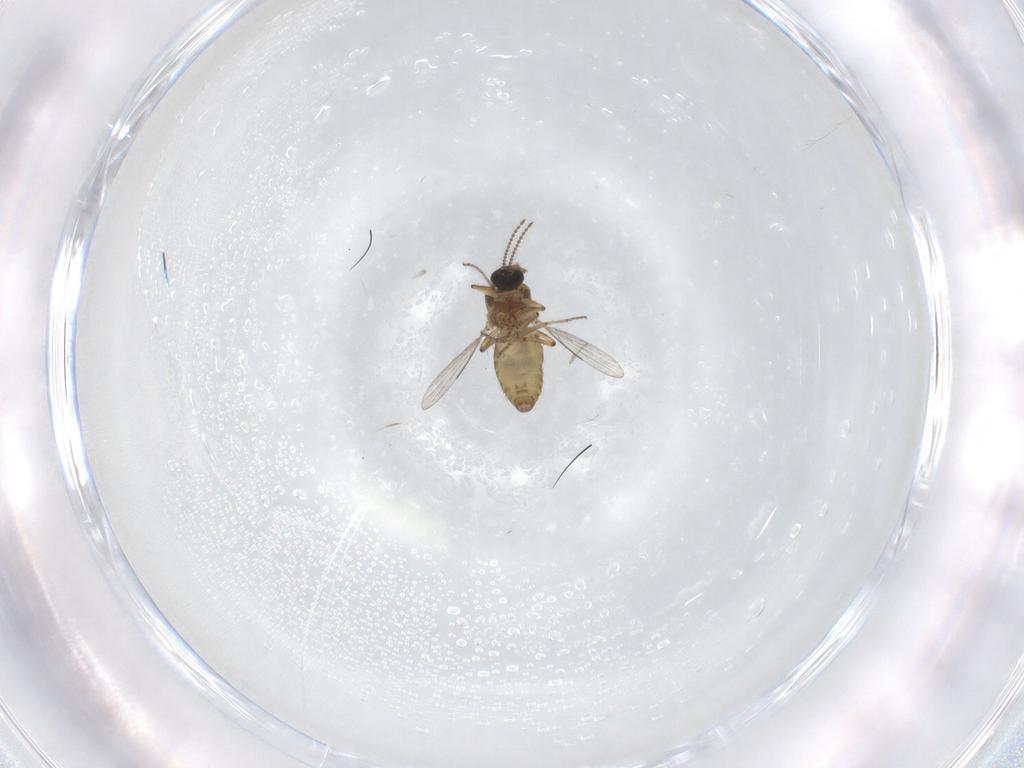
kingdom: Animalia
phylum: Arthropoda
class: Insecta
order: Diptera
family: Ceratopogonidae
